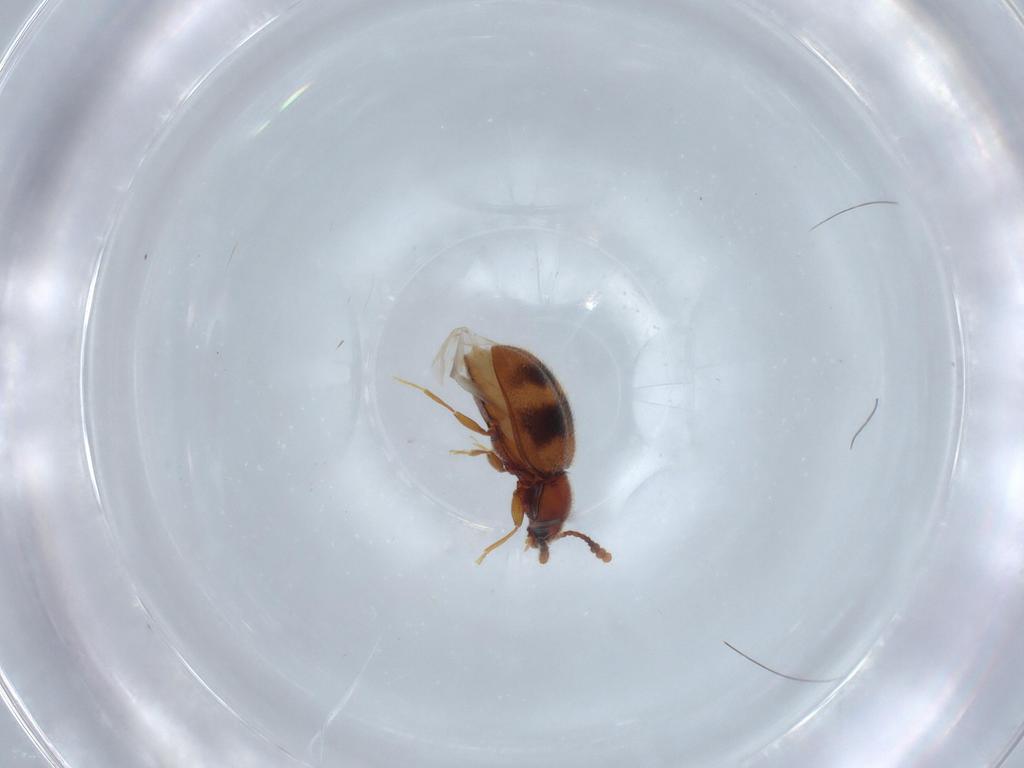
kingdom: Animalia
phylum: Arthropoda
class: Insecta
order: Coleoptera
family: Erotylidae
